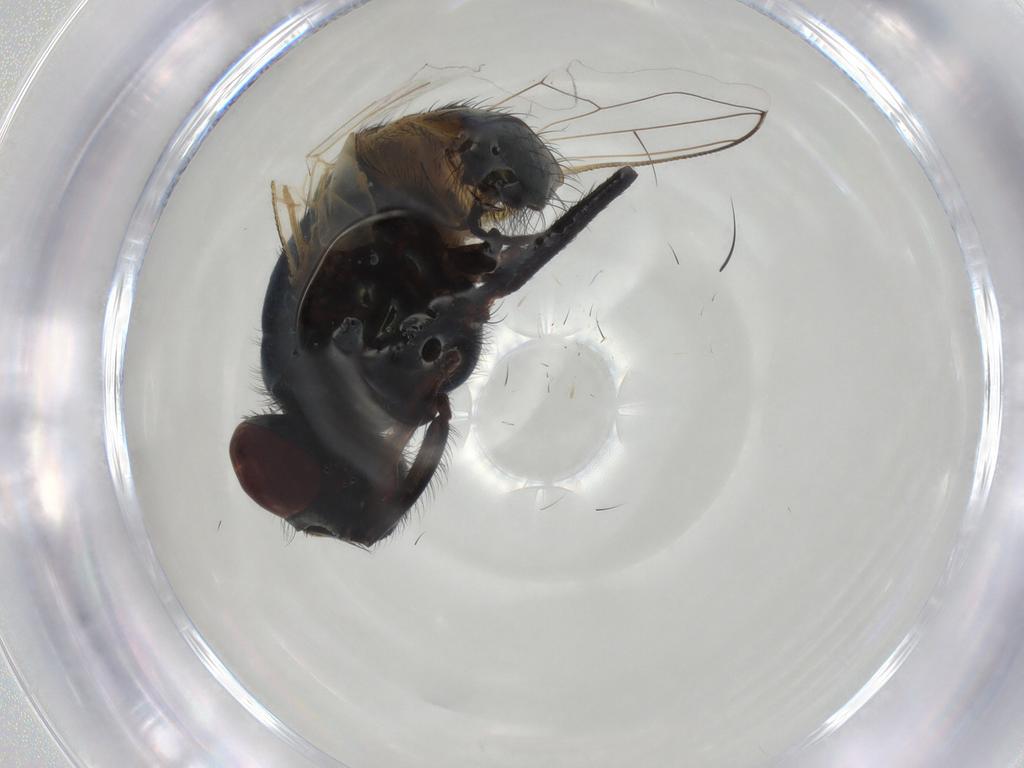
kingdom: Animalia
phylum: Arthropoda
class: Insecta
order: Diptera
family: Muscidae
